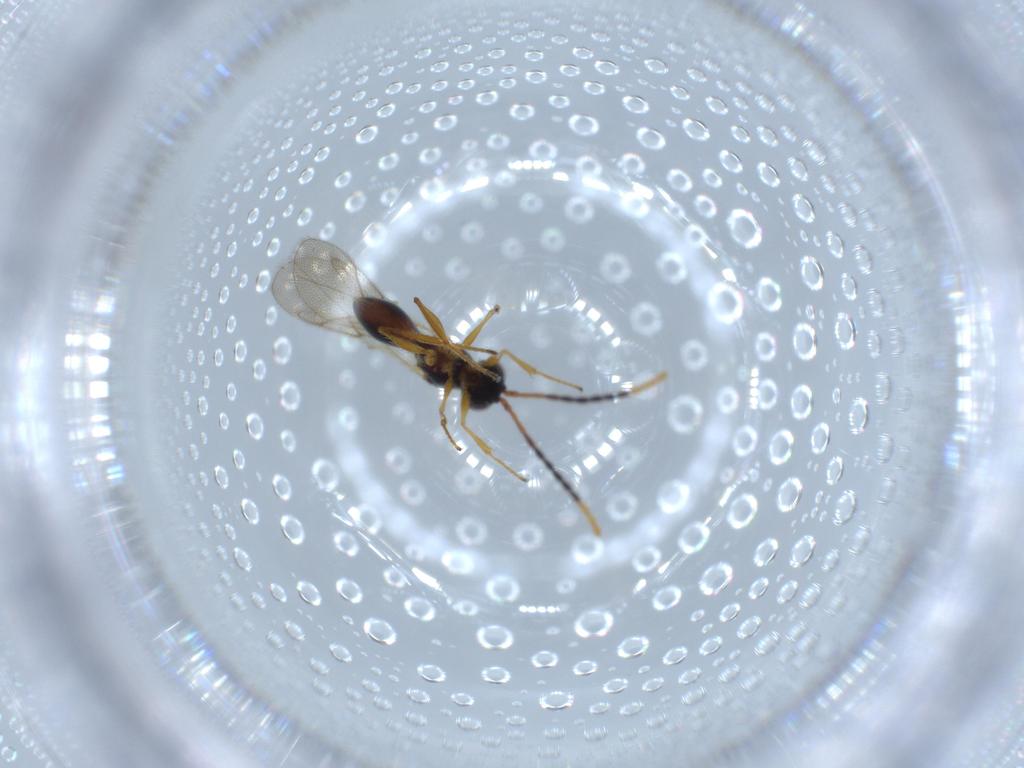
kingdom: Animalia
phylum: Arthropoda
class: Insecta
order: Hymenoptera
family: Figitidae
